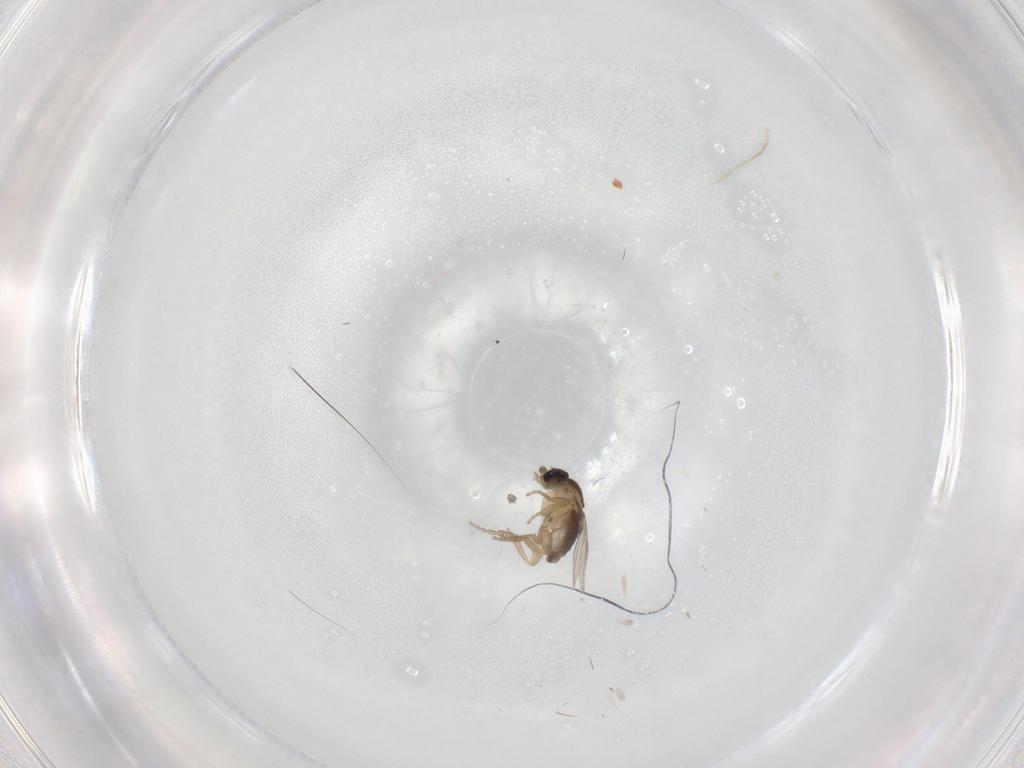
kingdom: Animalia
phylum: Arthropoda
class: Insecta
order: Diptera
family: Phoridae
